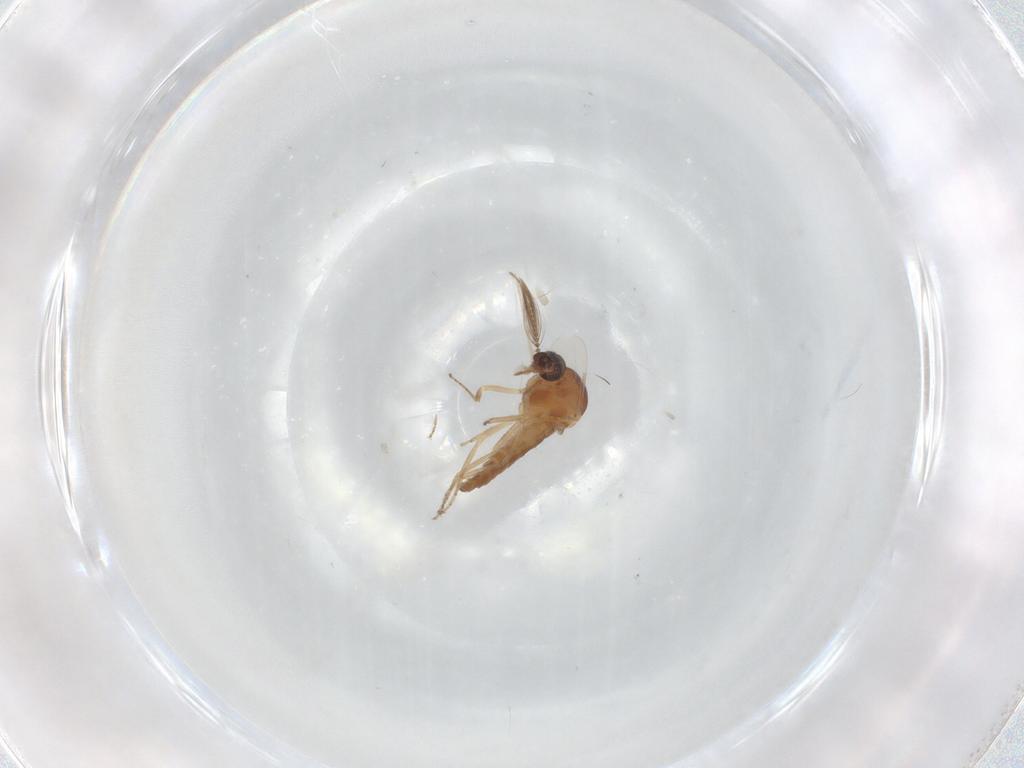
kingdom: Animalia
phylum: Arthropoda
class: Insecta
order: Diptera
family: Ceratopogonidae
